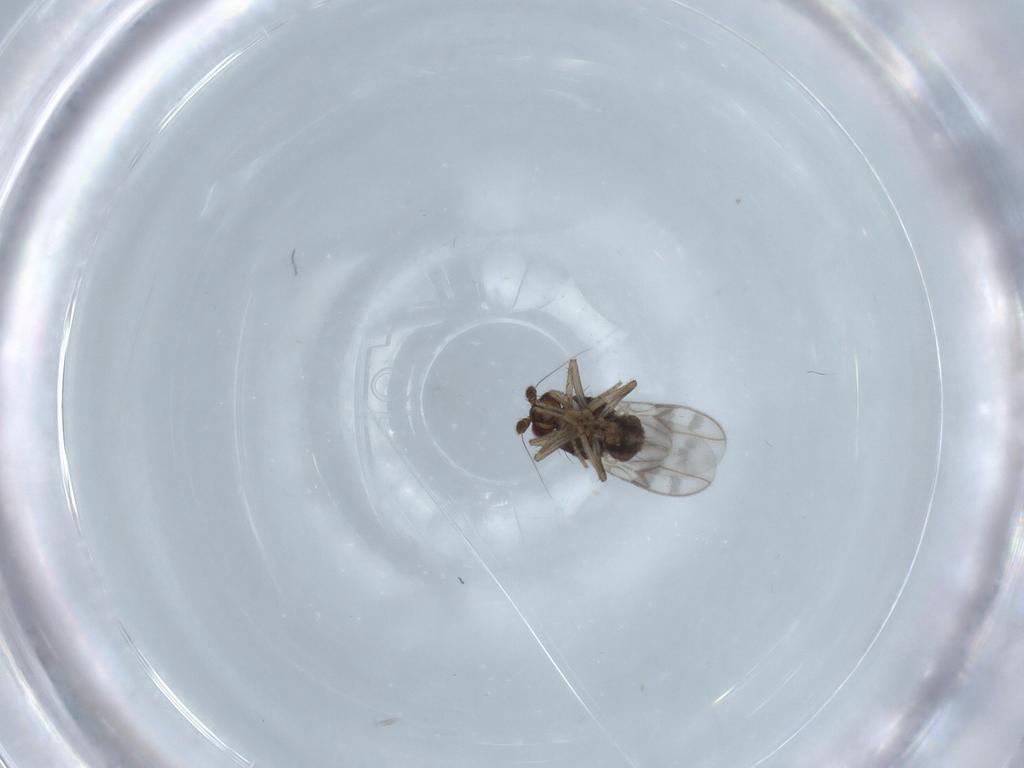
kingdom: Animalia
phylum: Arthropoda
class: Insecta
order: Diptera
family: Sphaeroceridae
